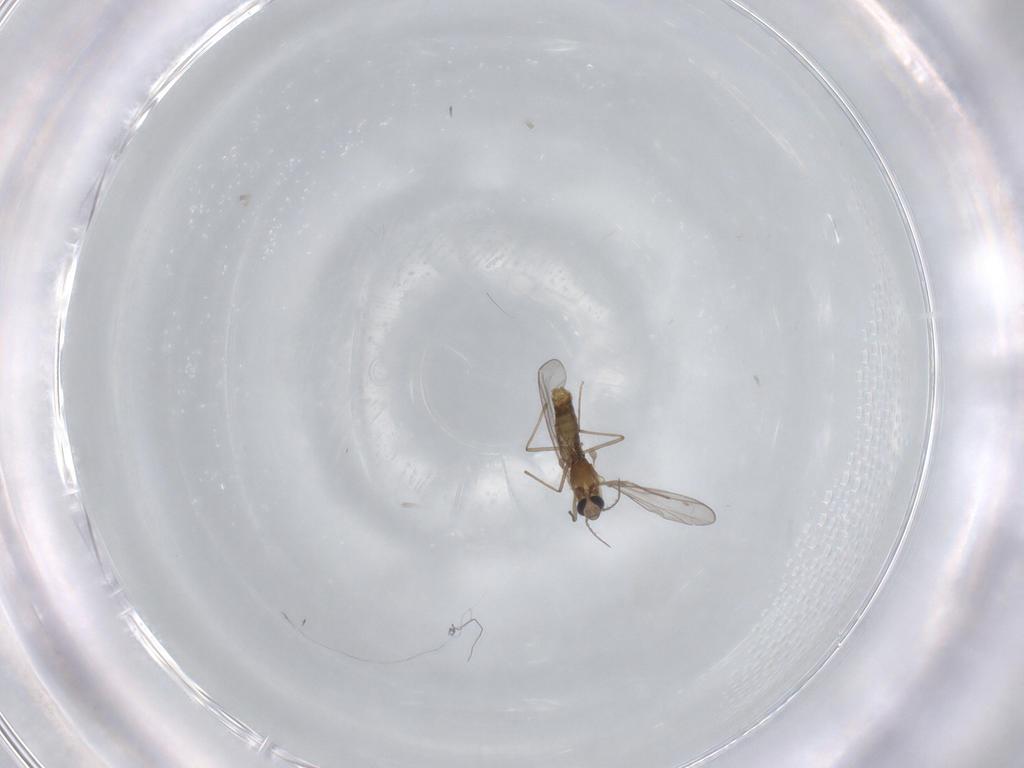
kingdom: Animalia
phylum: Arthropoda
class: Insecta
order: Diptera
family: Chironomidae
